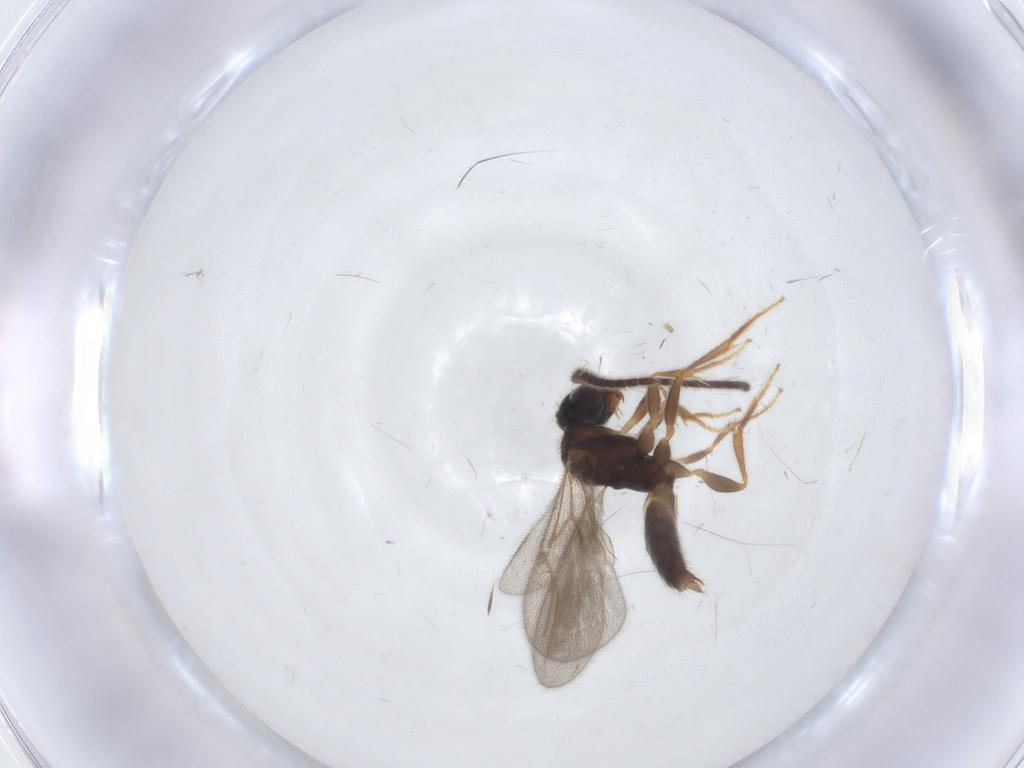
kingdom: Animalia
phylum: Arthropoda
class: Insecta
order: Hymenoptera
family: Bethylidae
